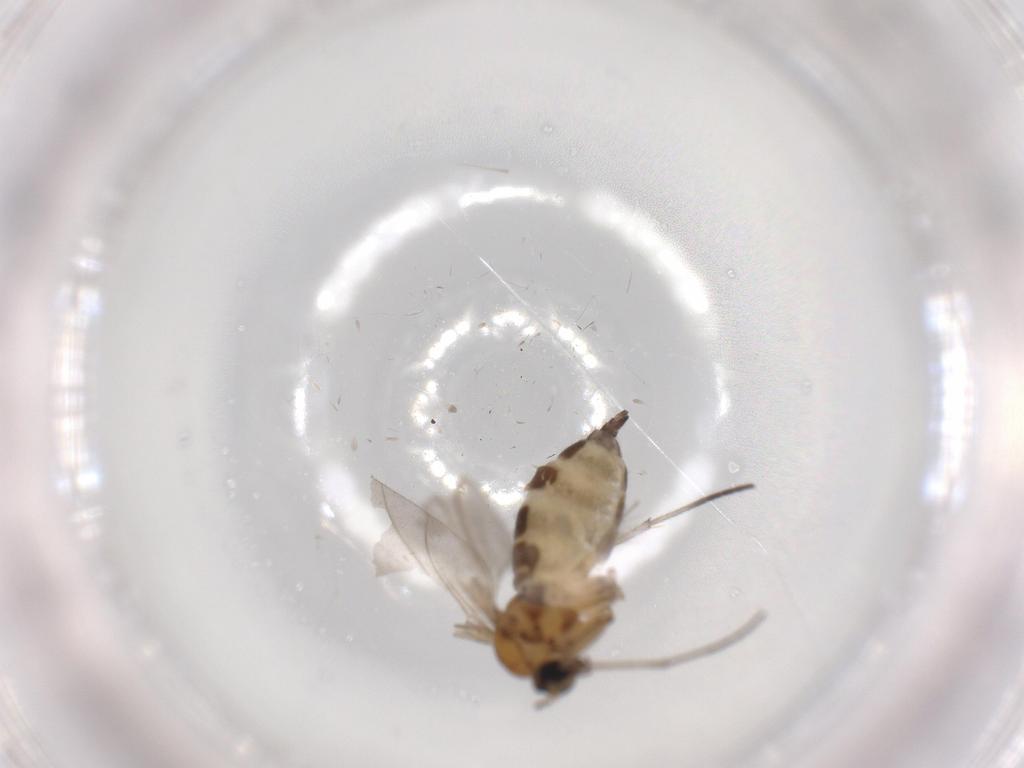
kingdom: Animalia
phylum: Arthropoda
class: Insecta
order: Diptera
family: Sciaridae
